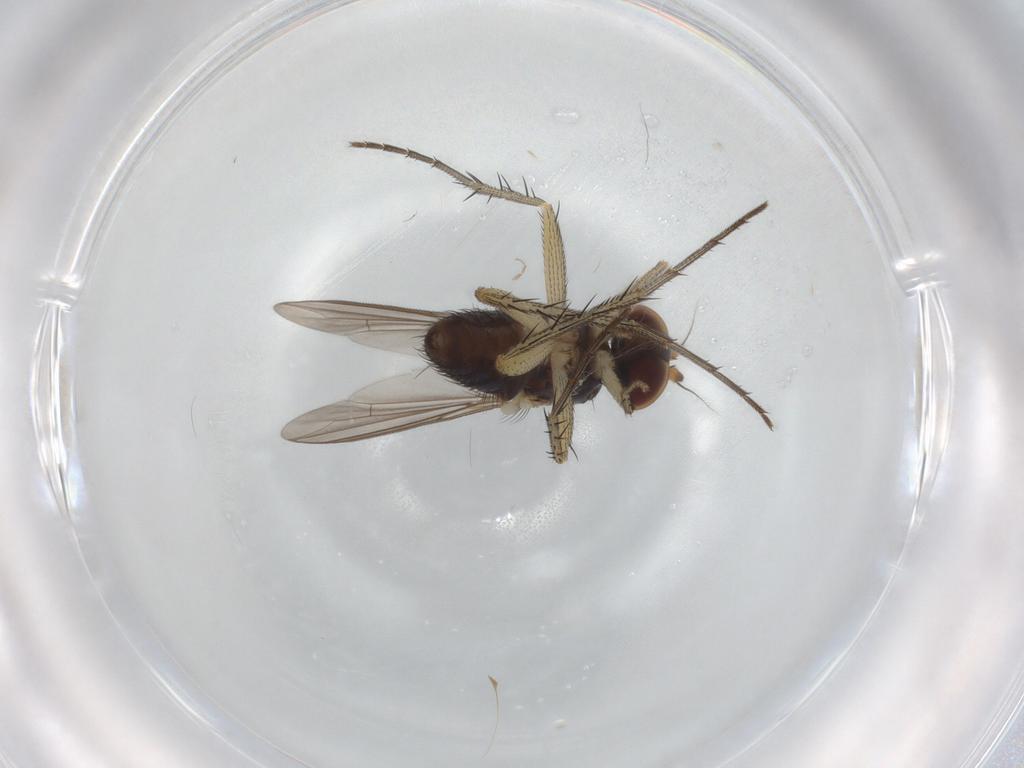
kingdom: Animalia
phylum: Arthropoda
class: Insecta
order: Diptera
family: Dolichopodidae
